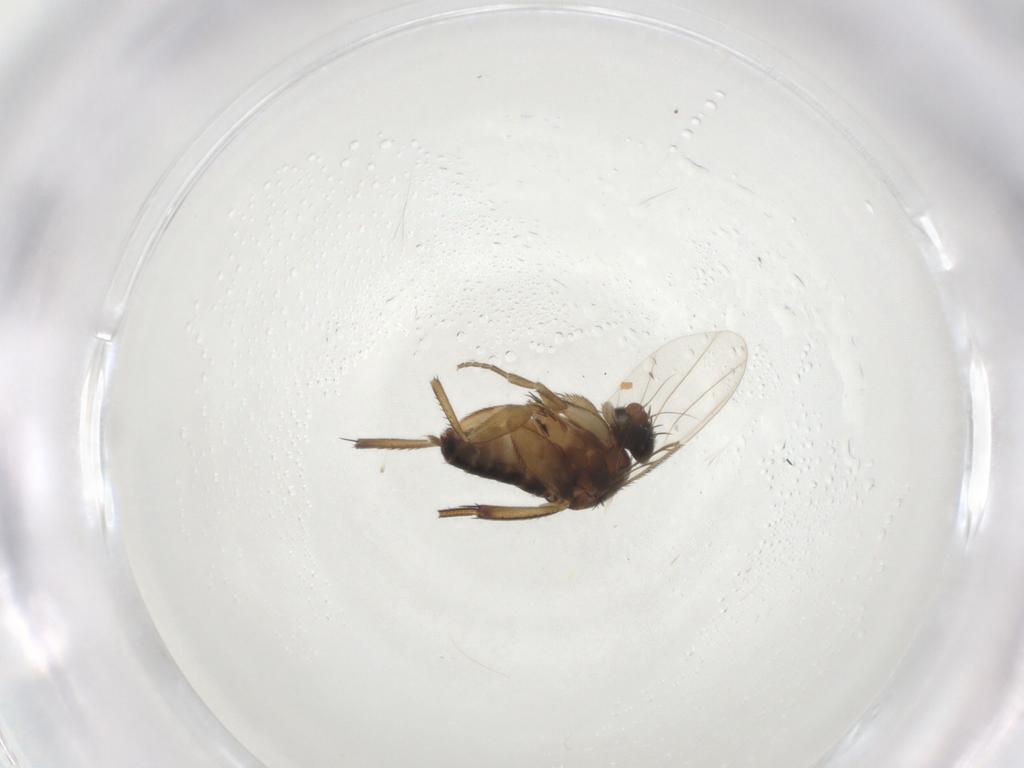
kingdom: Animalia
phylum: Arthropoda
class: Insecta
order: Diptera
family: Phoridae
